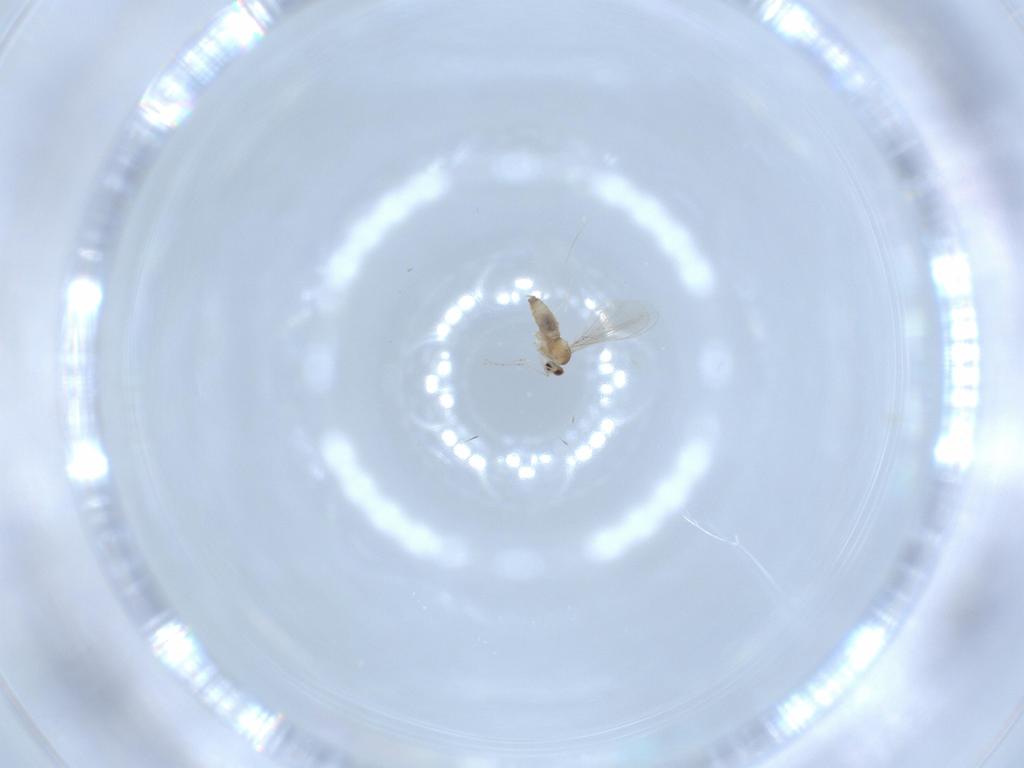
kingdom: Animalia
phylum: Arthropoda
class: Insecta
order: Diptera
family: Cecidomyiidae
